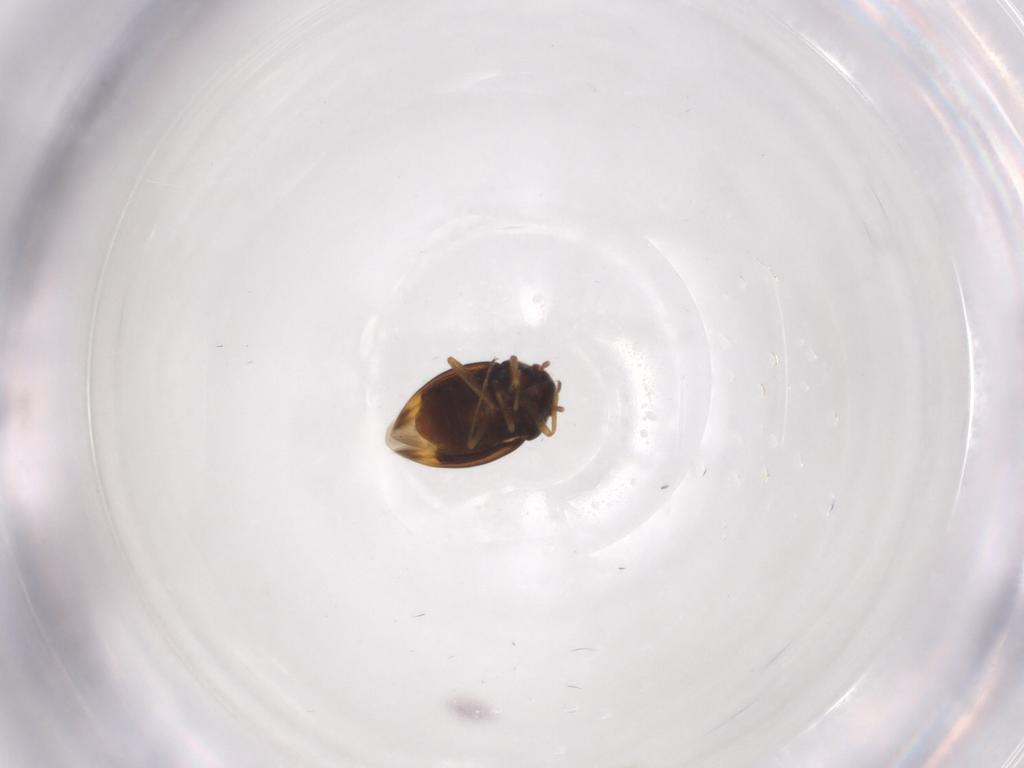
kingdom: Animalia
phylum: Arthropoda
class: Insecta
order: Hemiptera
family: Schizopteridae
